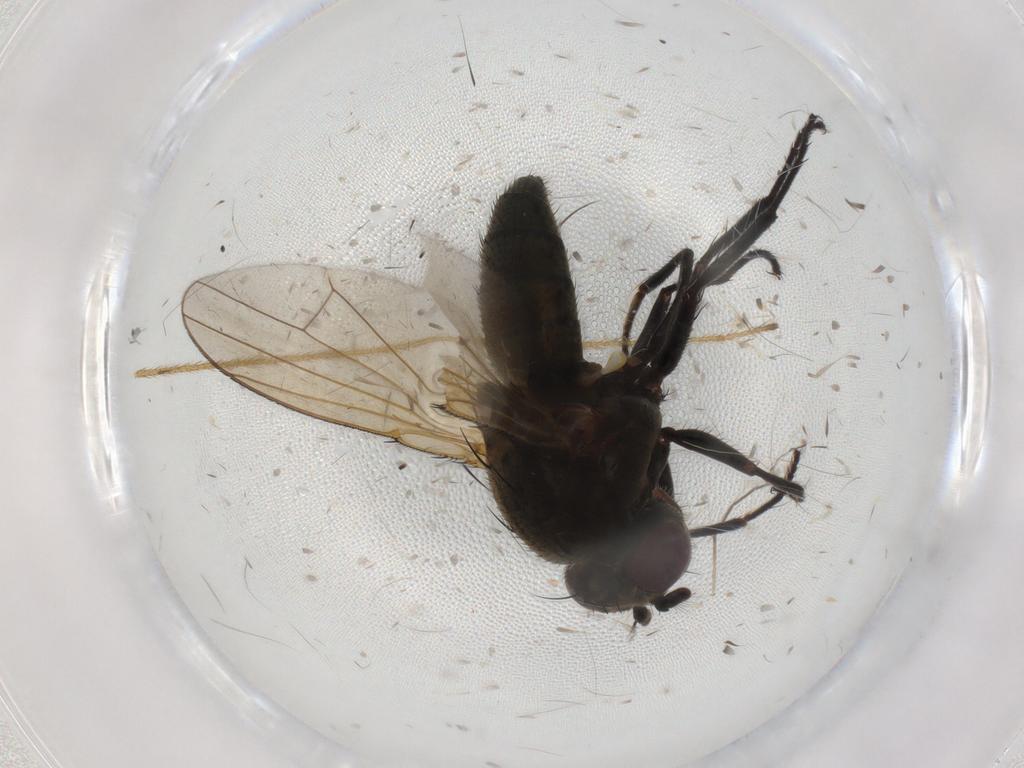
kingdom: Animalia
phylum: Arthropoda
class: Insecta
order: Diptera
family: Ephydridae
